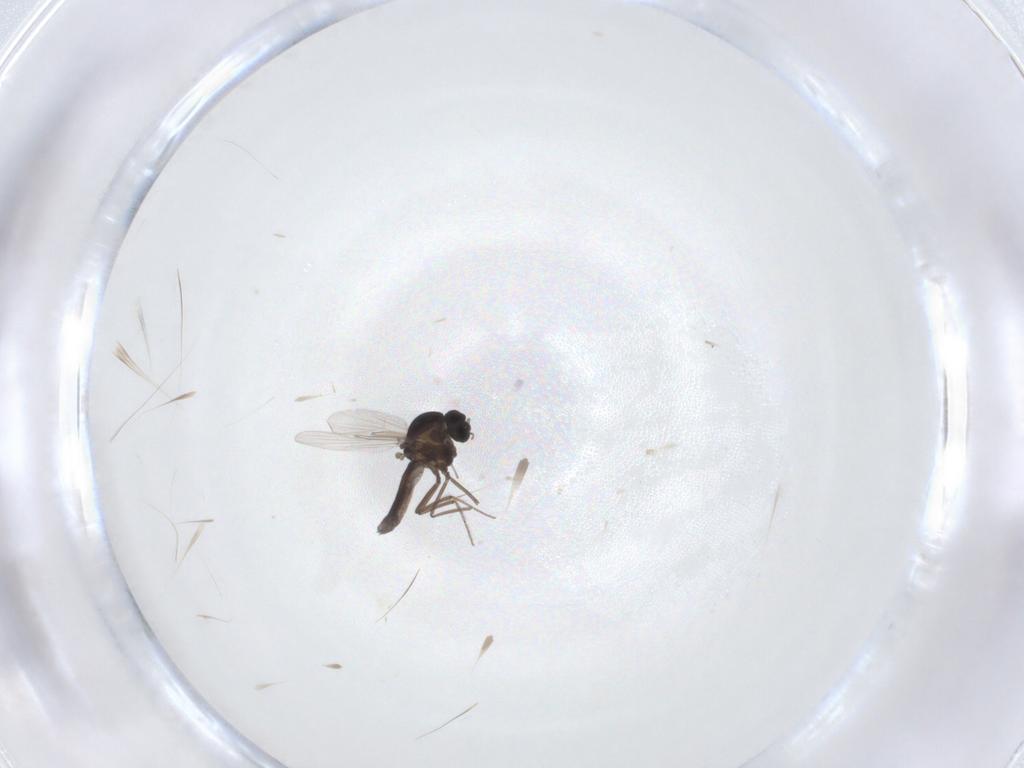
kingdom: Animalia
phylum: Arthropoda
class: Insecta
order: Diptera
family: Ceratopogonidae
